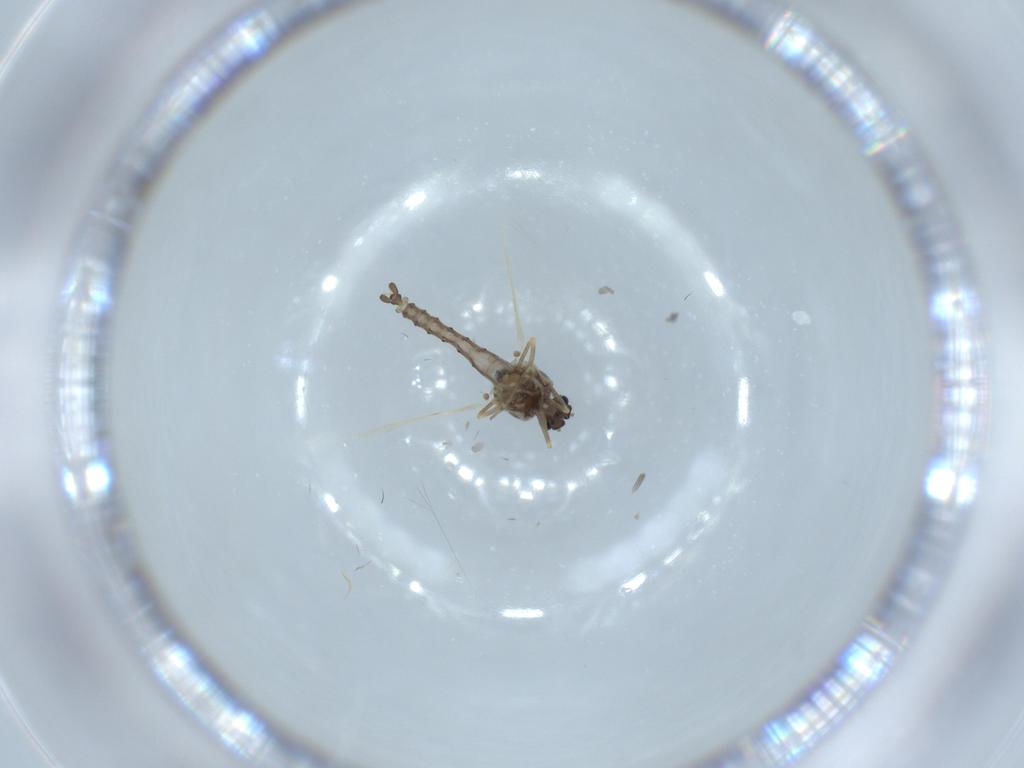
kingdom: Animalia
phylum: Arthropoda
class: Insecta
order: Diptera
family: Ceratopogonidae
